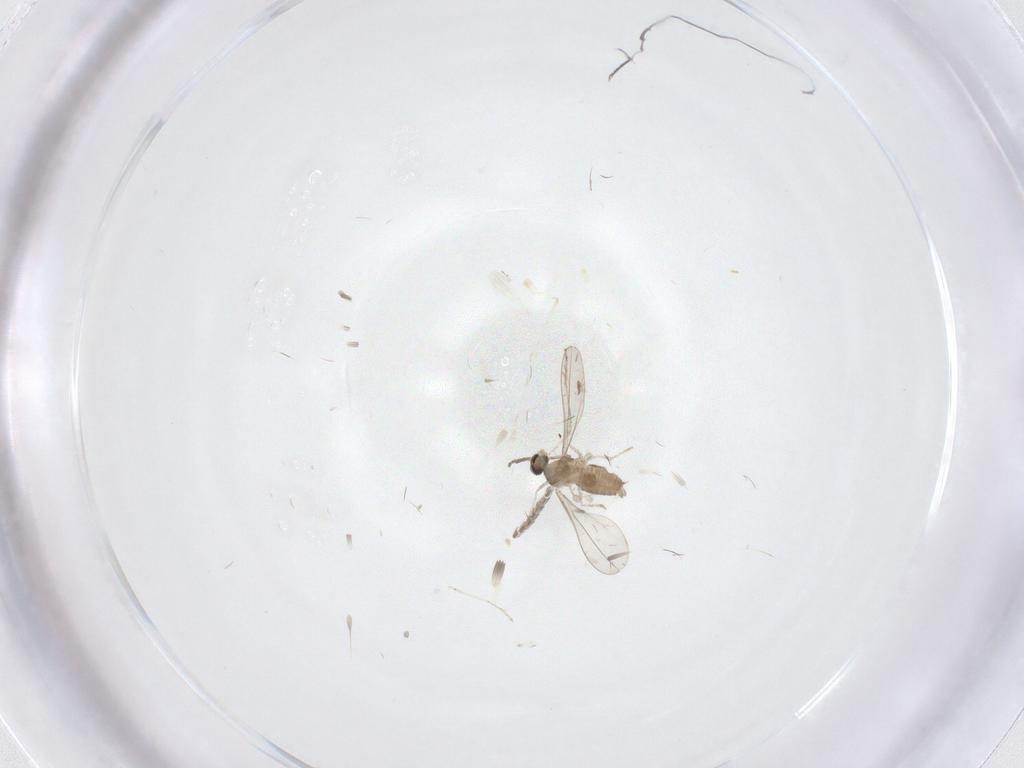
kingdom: Animalia
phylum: Arthropoda
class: Insecta
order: Diptera
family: Cecidomyiidae
